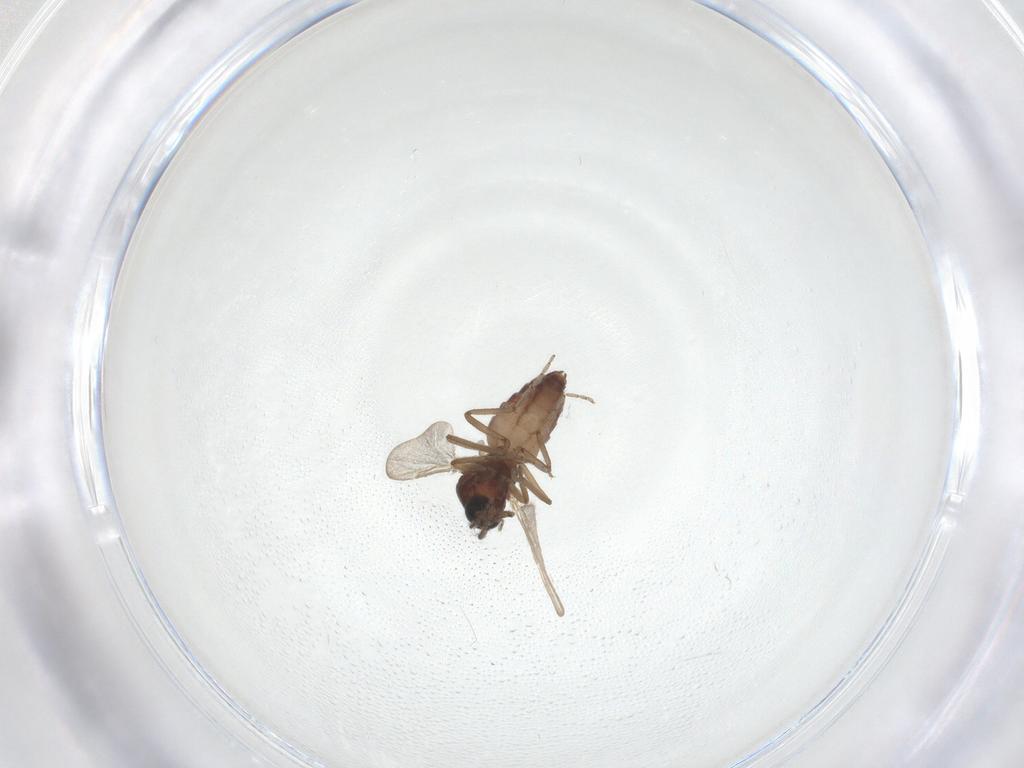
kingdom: Animalia
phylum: Arthropoda
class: Insecta
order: Diptera
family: Ceratopogonidae
